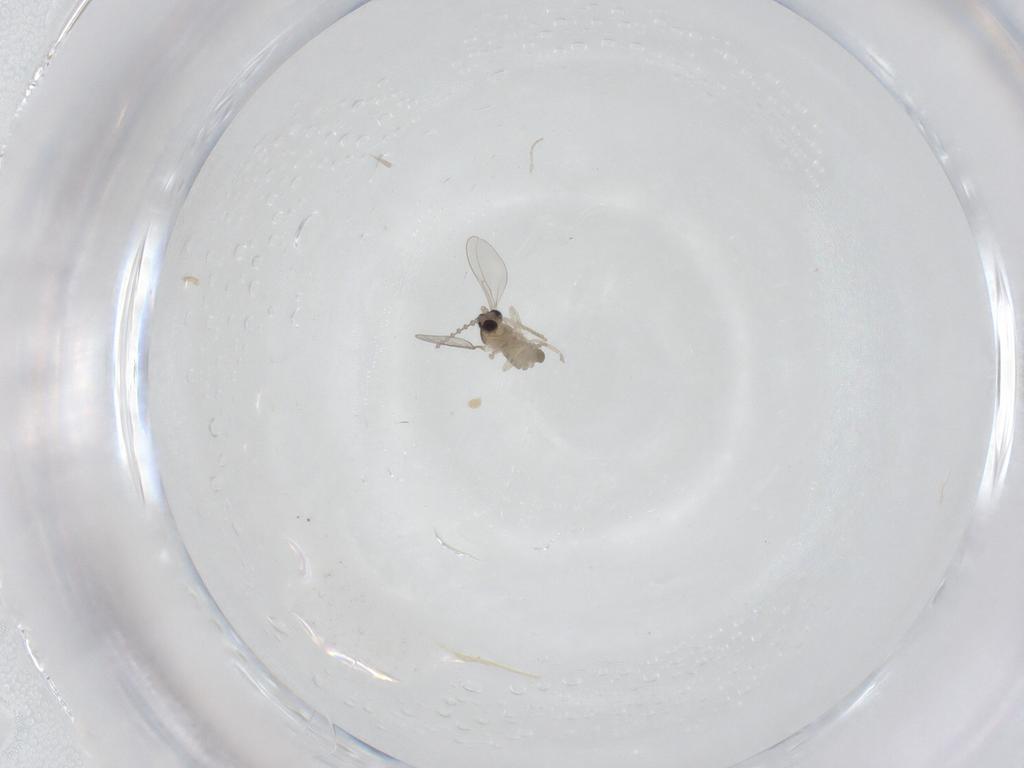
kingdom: Animalia
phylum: Arthropoda
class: Insecta
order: Diptera
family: Cecidomyiidae
